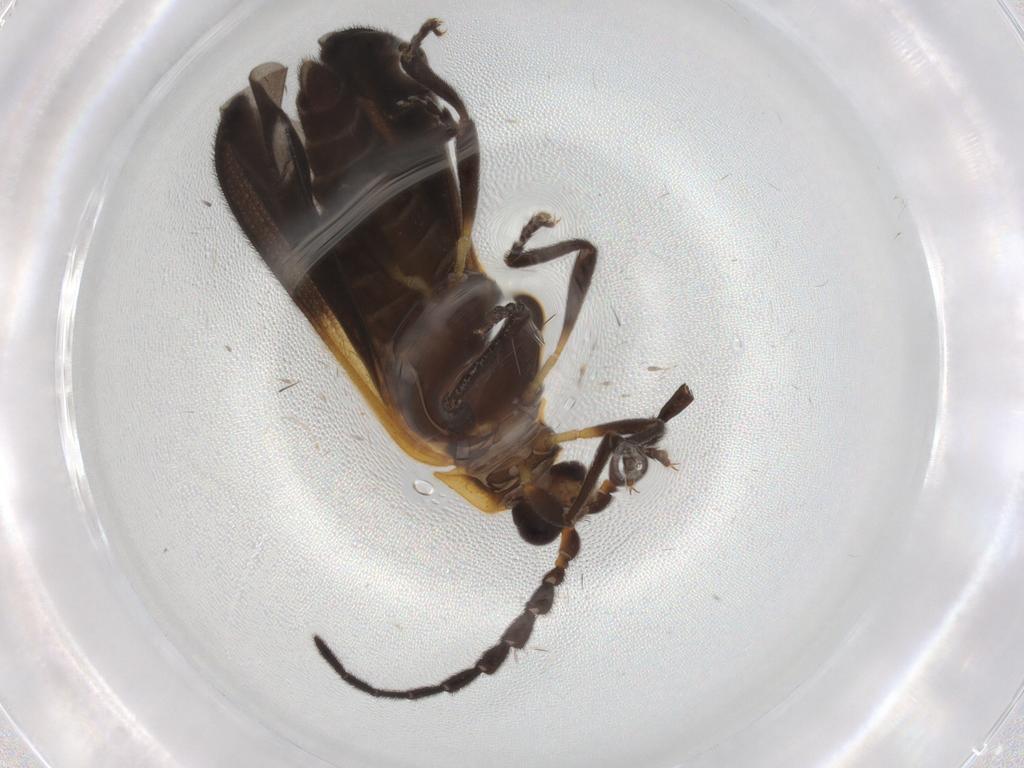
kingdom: Animalia
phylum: Arthropoda
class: Insecta
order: Coleoptera
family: Lycidae
